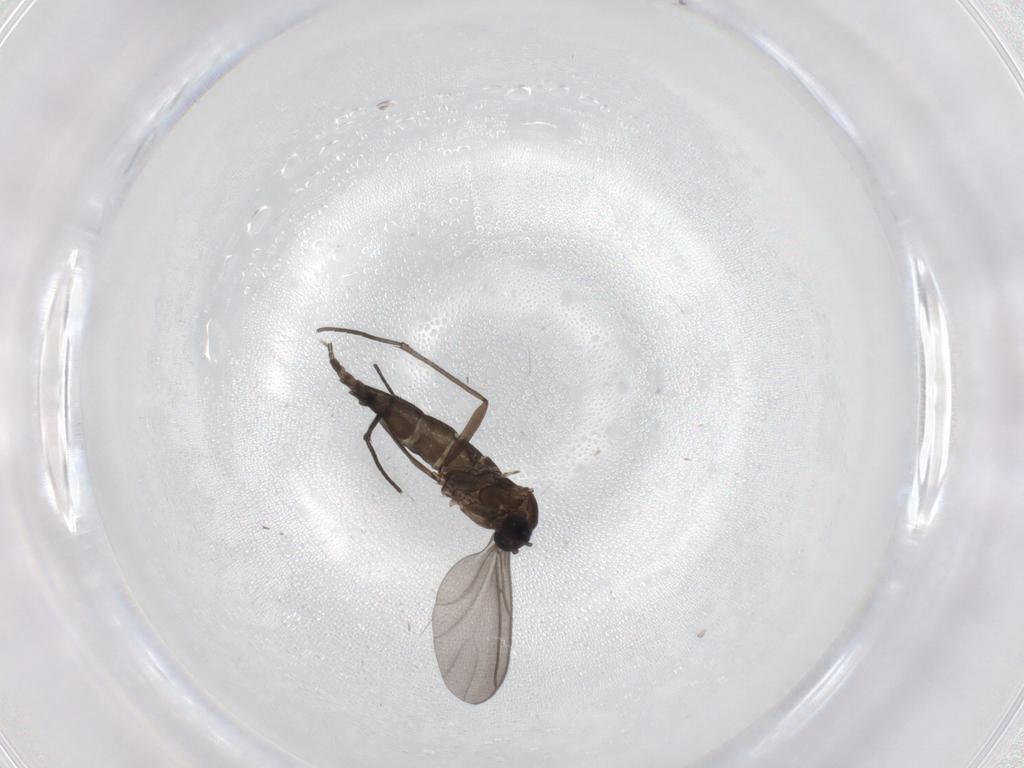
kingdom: Animalia
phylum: Arthropoda
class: Insecta
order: Diptera
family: Sciaridae
